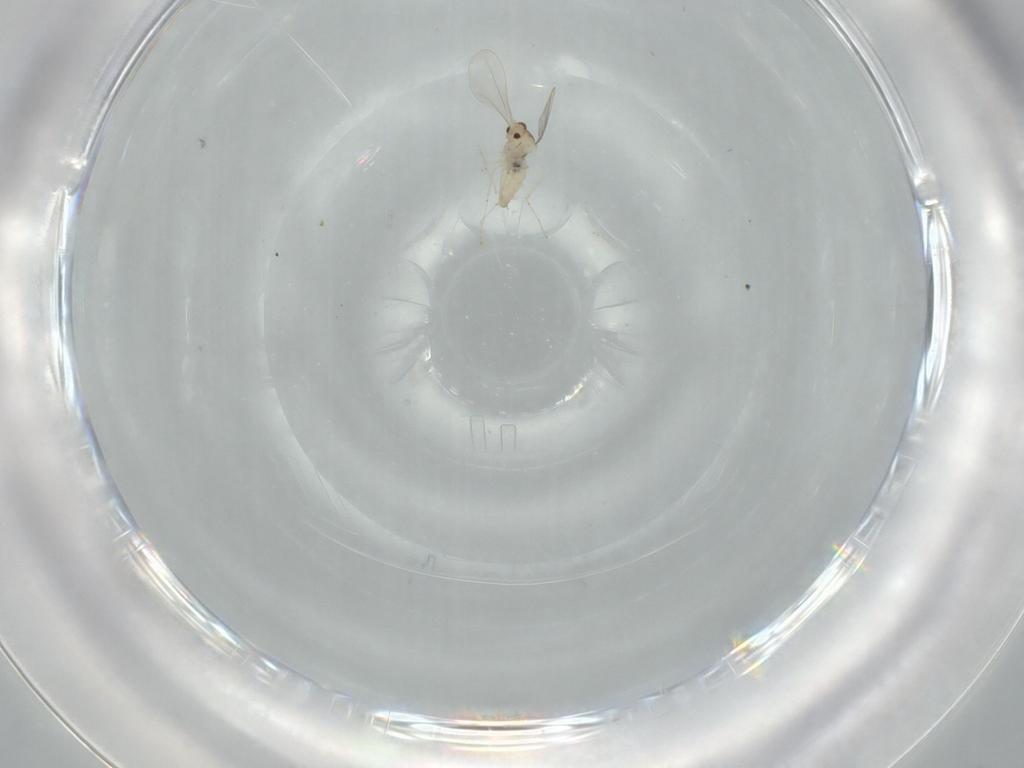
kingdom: Animalia
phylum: Arthropoda
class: Insecta
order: Diptera
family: Cecidomyiidae
